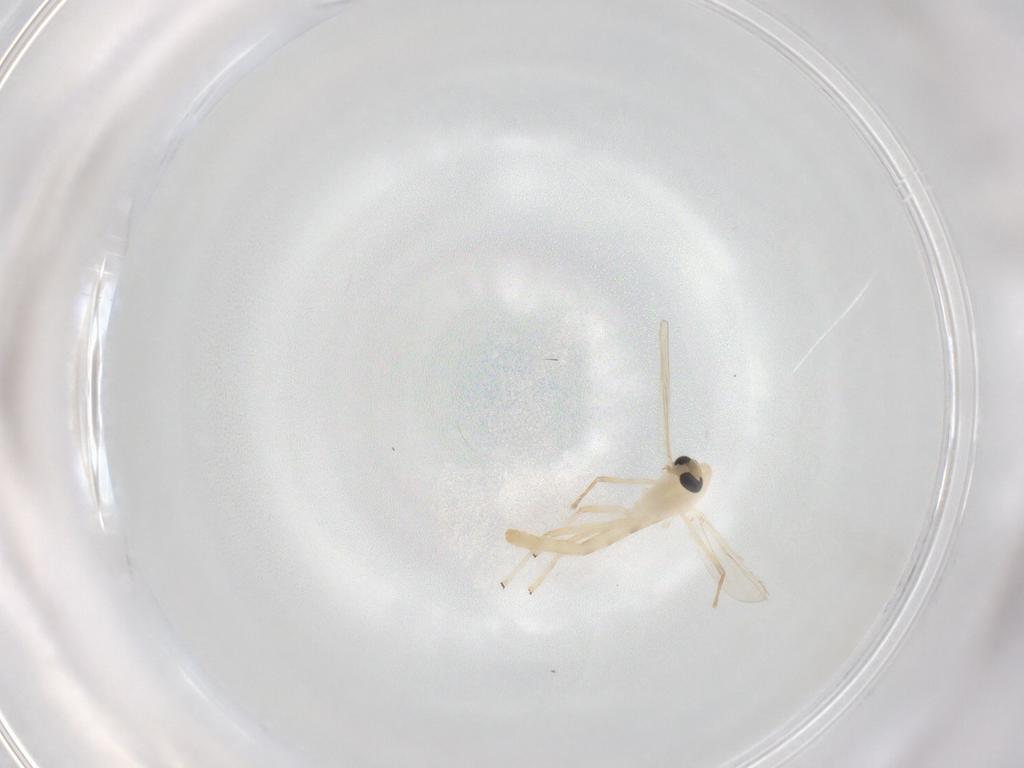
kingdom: Animalia
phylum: Arthropoda
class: Insecta
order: Diptera
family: Chironomidae
